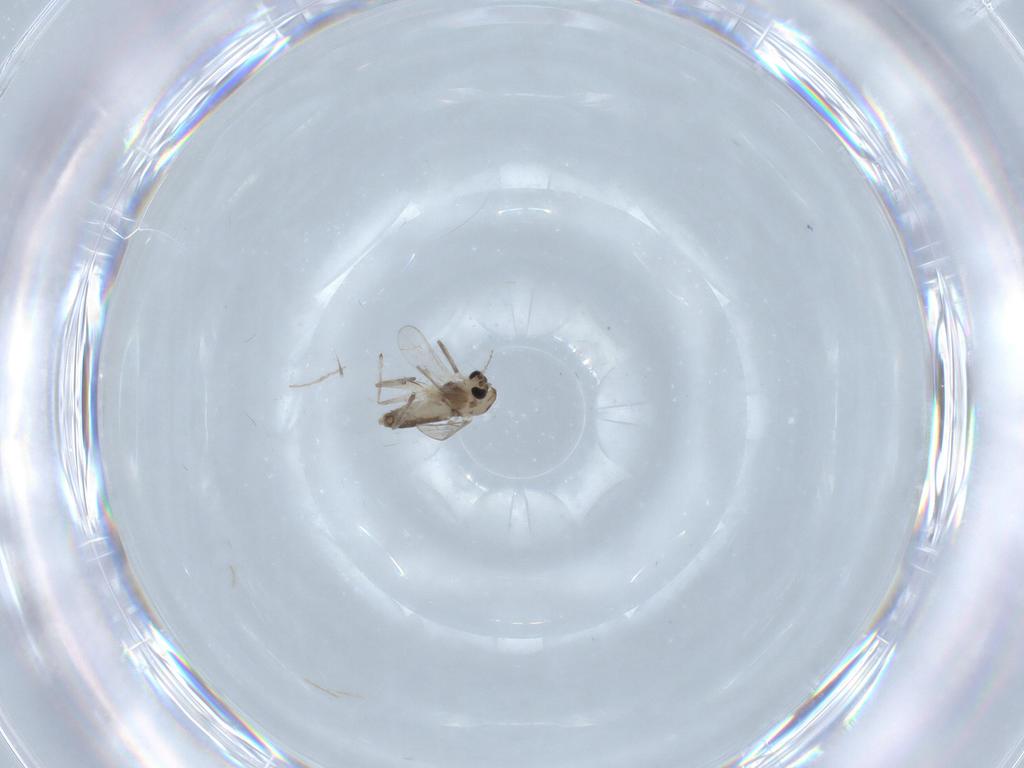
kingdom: Animalia
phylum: Arthropoda
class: Insecta
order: Diptera
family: Chironomidae
